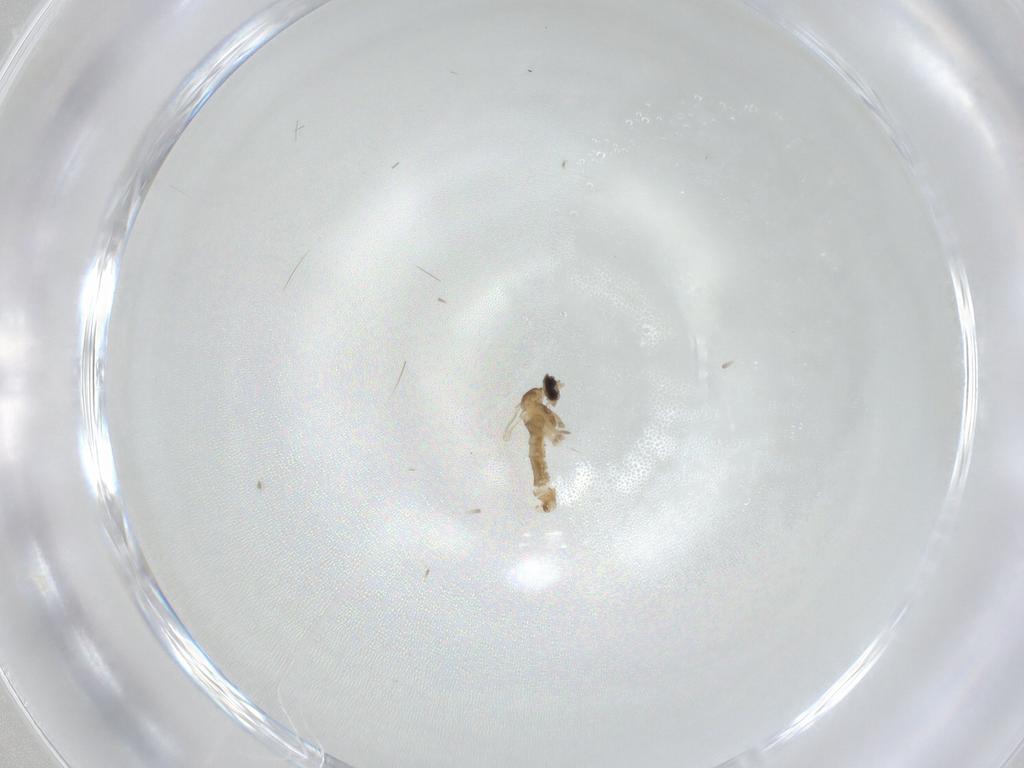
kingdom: Animalia
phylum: Arthropoda
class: Insecta
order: Diptera
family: Cecidomyiidae
